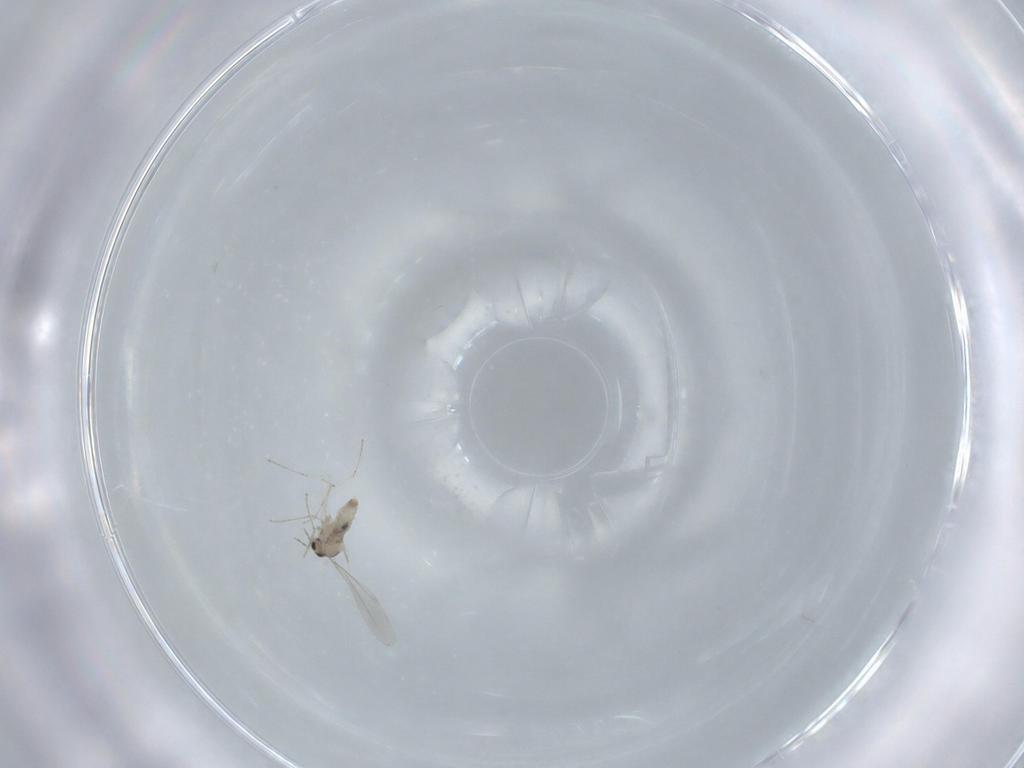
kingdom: Animalia
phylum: Arthropoda
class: Insecta
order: Diptera
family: Cecidomyiidae
